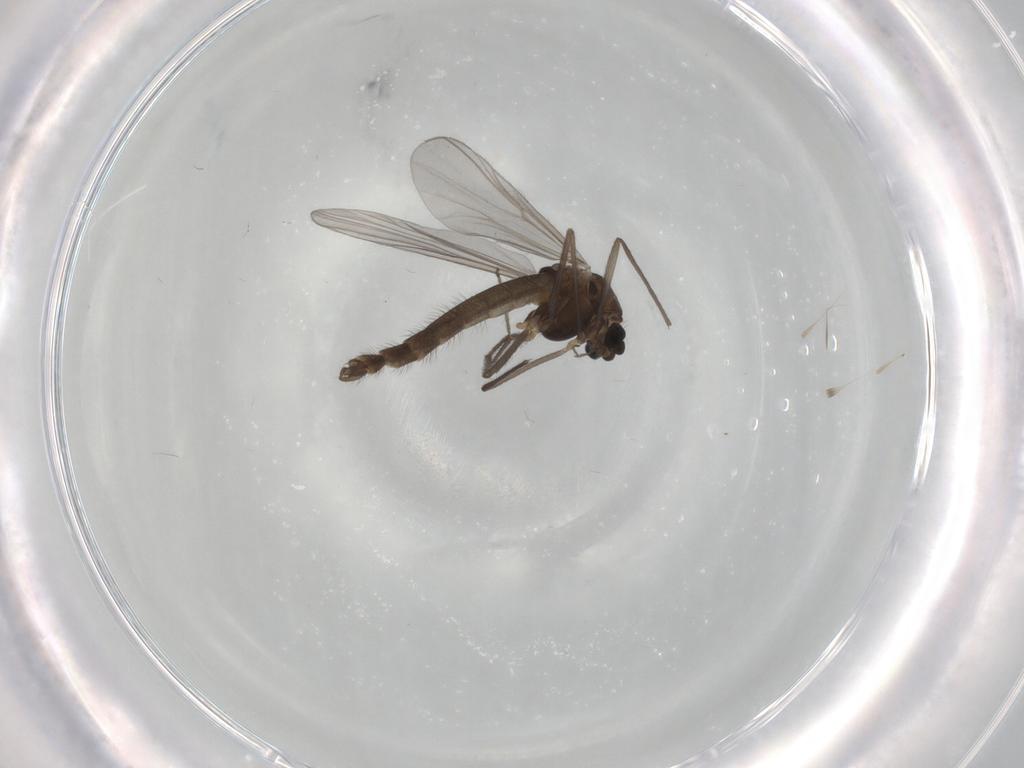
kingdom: Animalia
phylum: Arthropoda
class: Insecta
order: Diptera
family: Chironomidae
